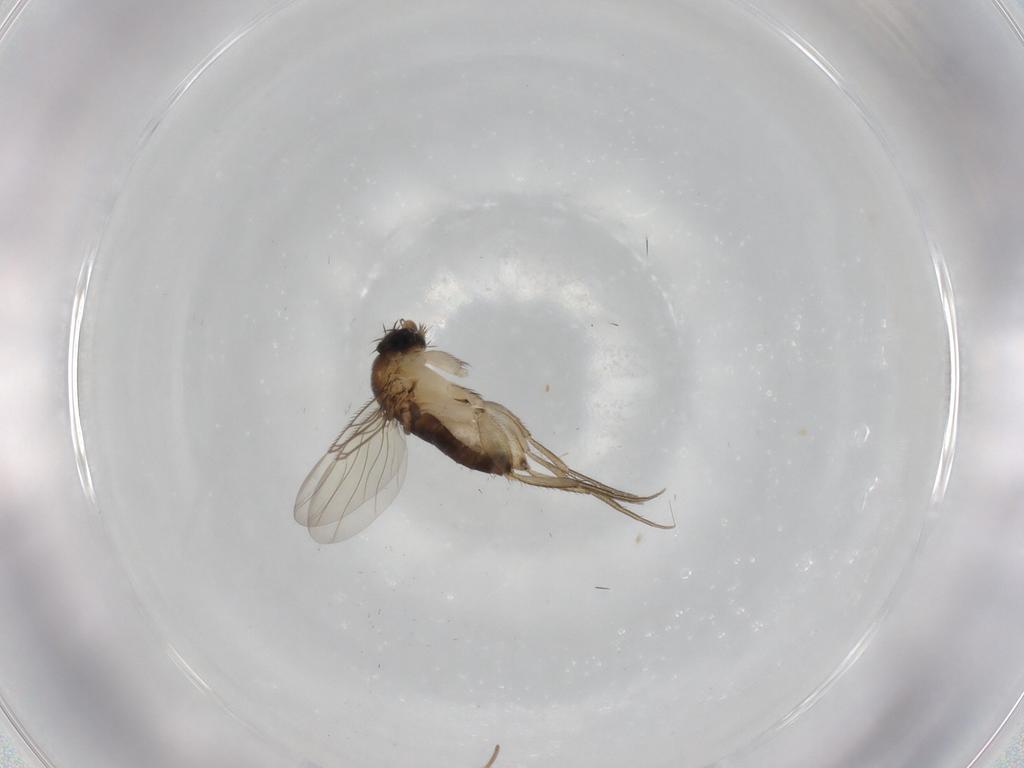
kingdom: Animalia
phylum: Arthropoda
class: Insecta
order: Diptera
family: Phoridae
